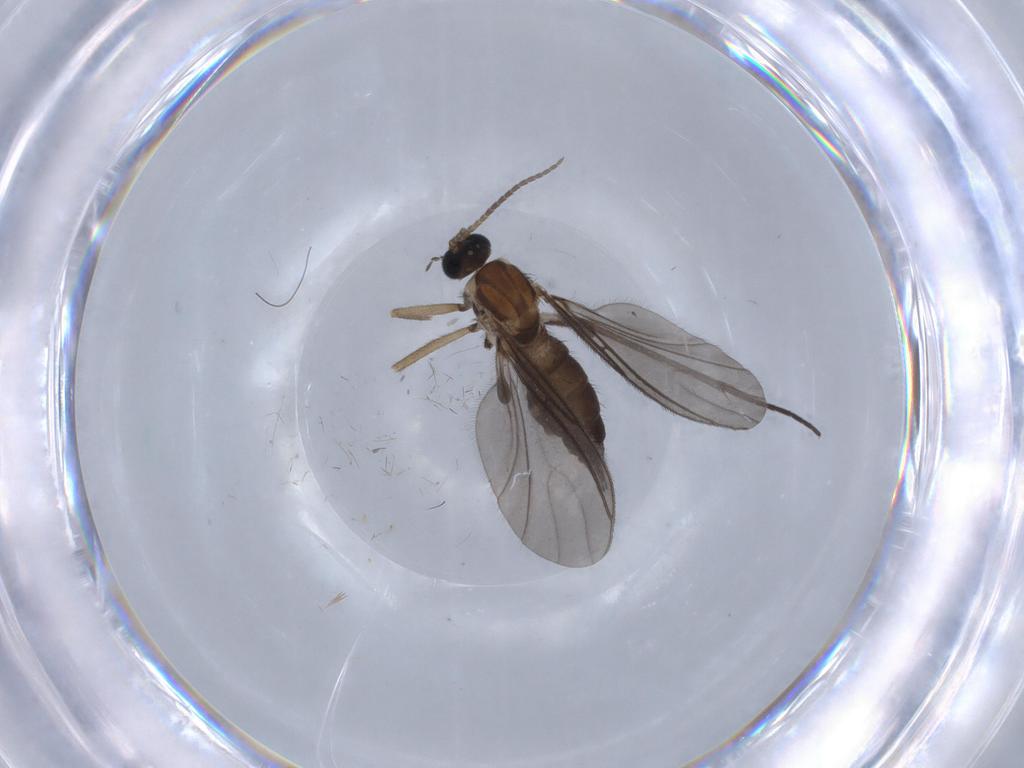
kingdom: Animalia
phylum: Arthropoda
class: Insecta
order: Diptera
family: Sciaridae
